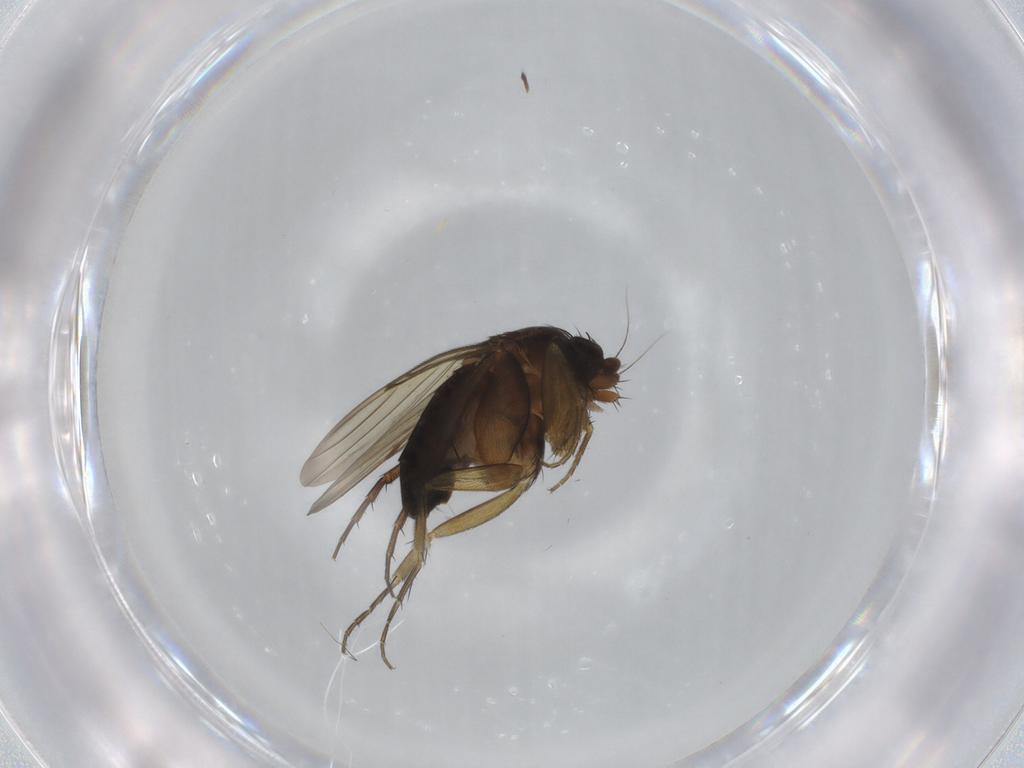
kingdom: Animalia
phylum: Arthropoda
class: Insecta
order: Diptera
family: Phoridae
